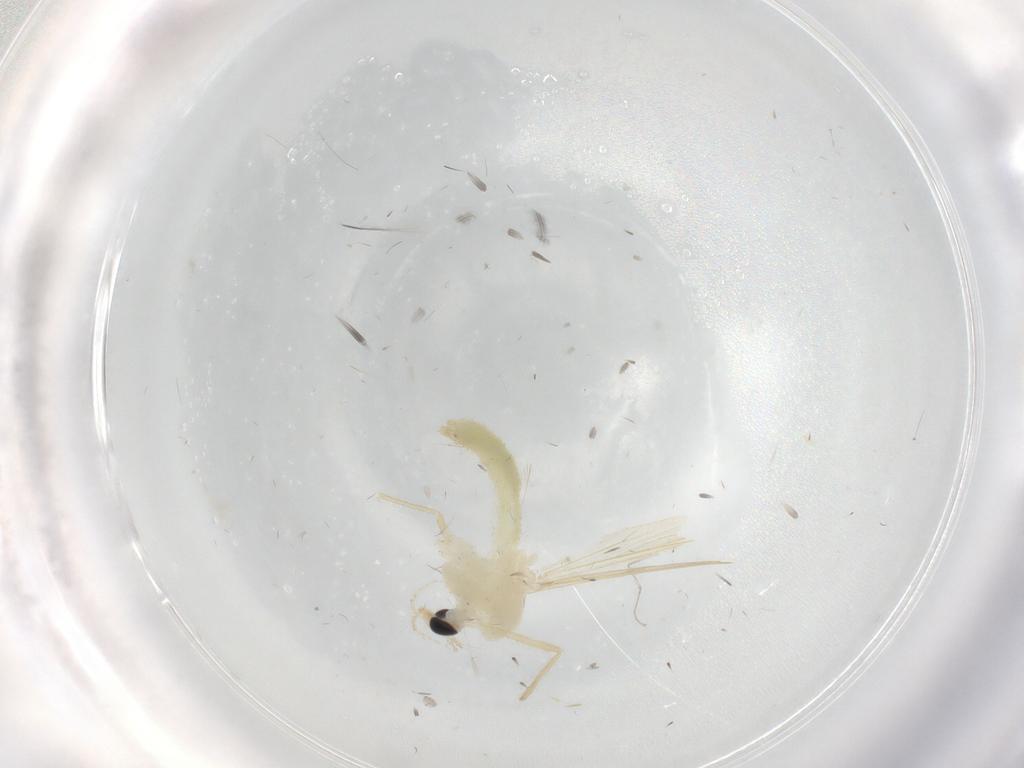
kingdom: Animalia
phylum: Arthropoda
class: Insecta
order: Diptera
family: Chironomidae
